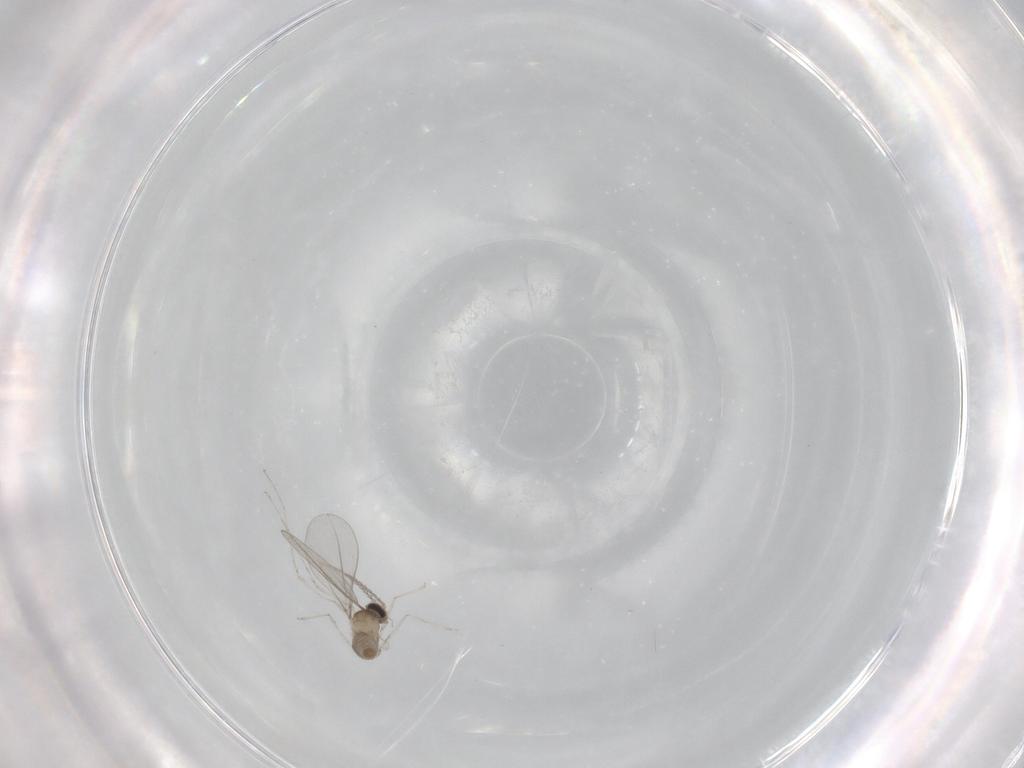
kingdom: Animalia
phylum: Arthropoda
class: Insecta
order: Diptera
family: Cecidomyiidae
